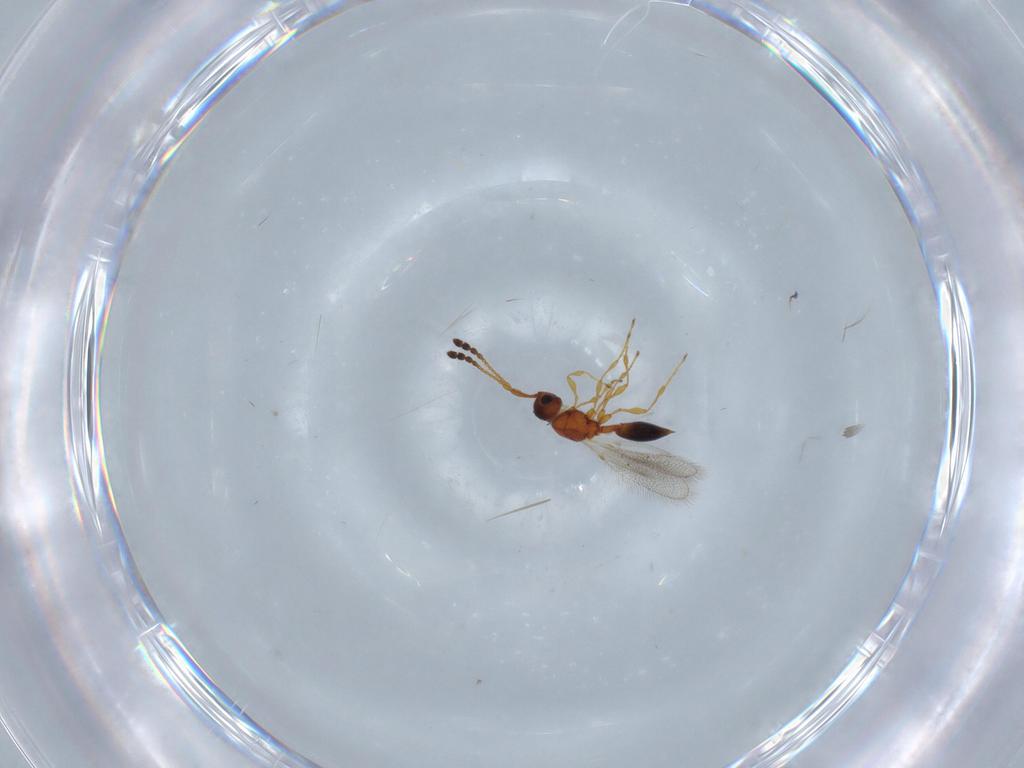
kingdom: Animalia
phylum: Arthropoda
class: Insecta
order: Hymenoptera
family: Diapriidae
